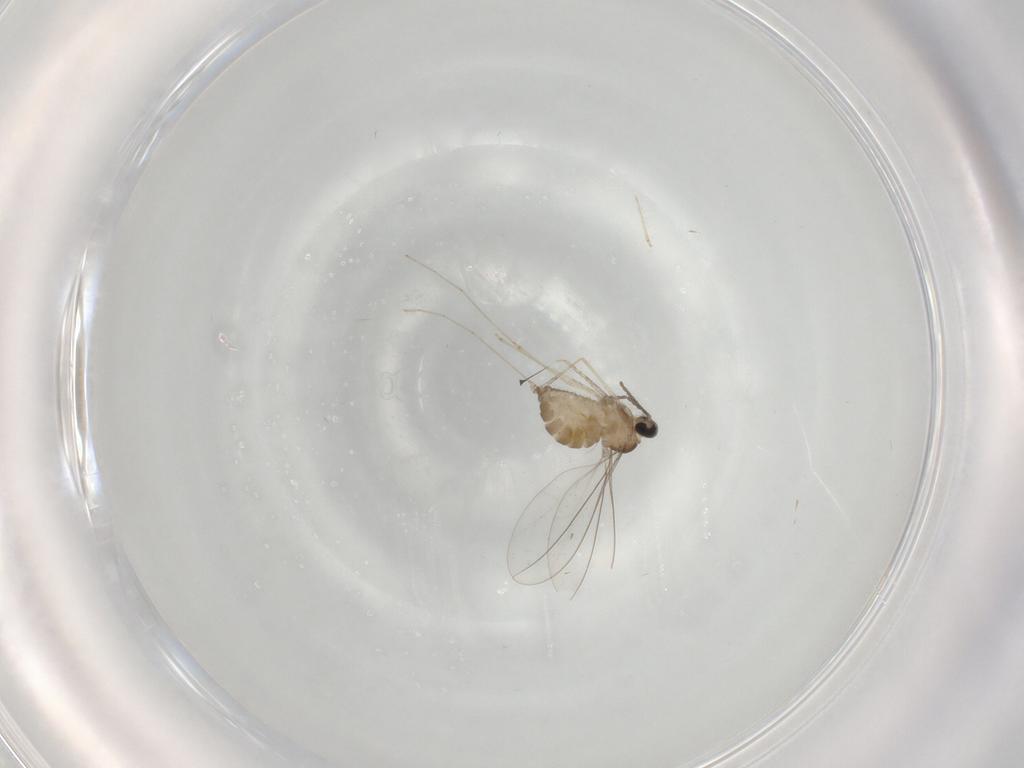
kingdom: Animalia
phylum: Arthropoda
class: Insecta
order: Diptera
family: Cecidomyiidae
